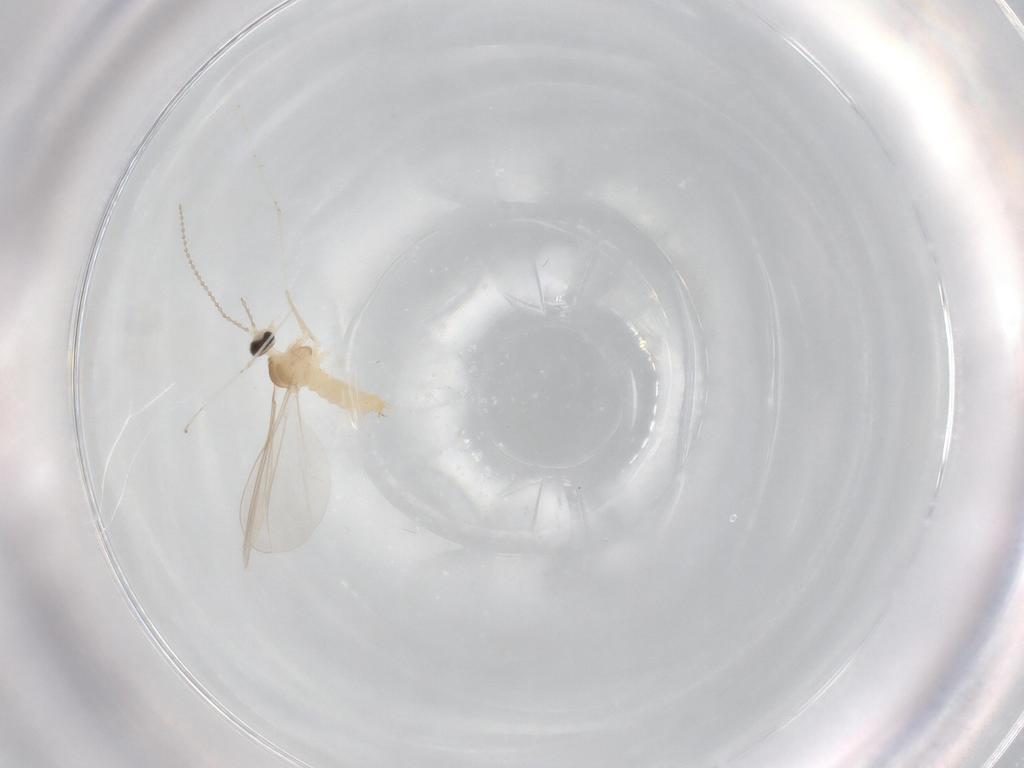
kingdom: Animalia
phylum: Arthropoda
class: Insecta
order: Diptera
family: Cecidomyiidae
